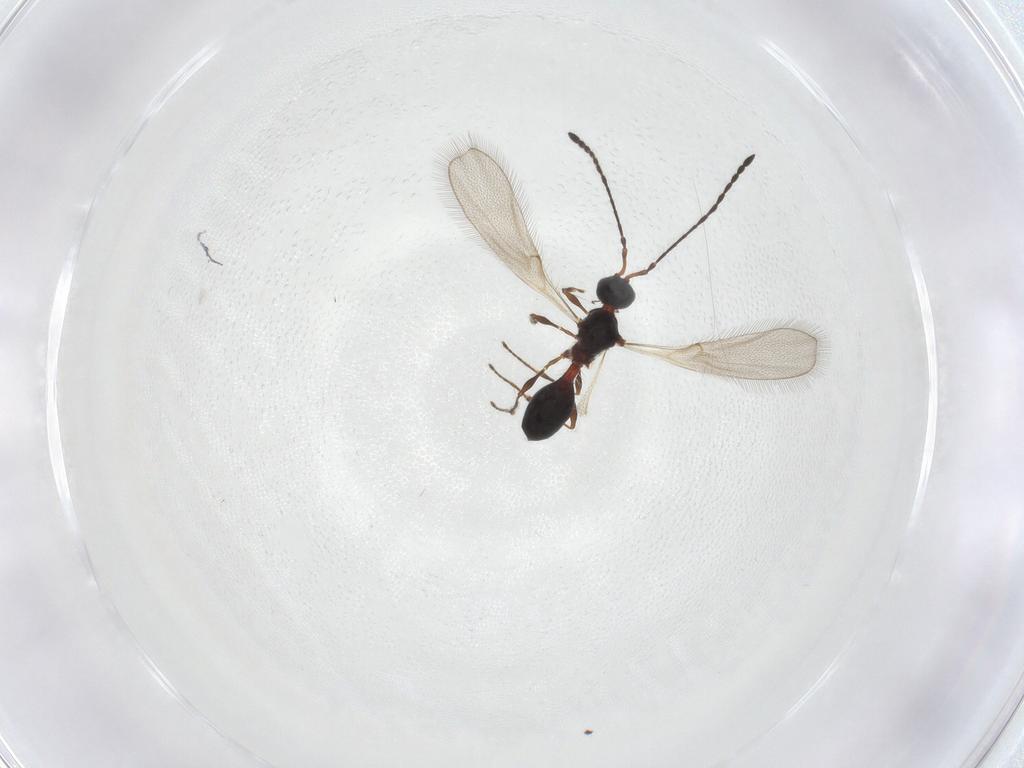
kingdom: Animalia
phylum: Arthropoda
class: Insecta
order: Hymenoptera
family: Diapriidae
